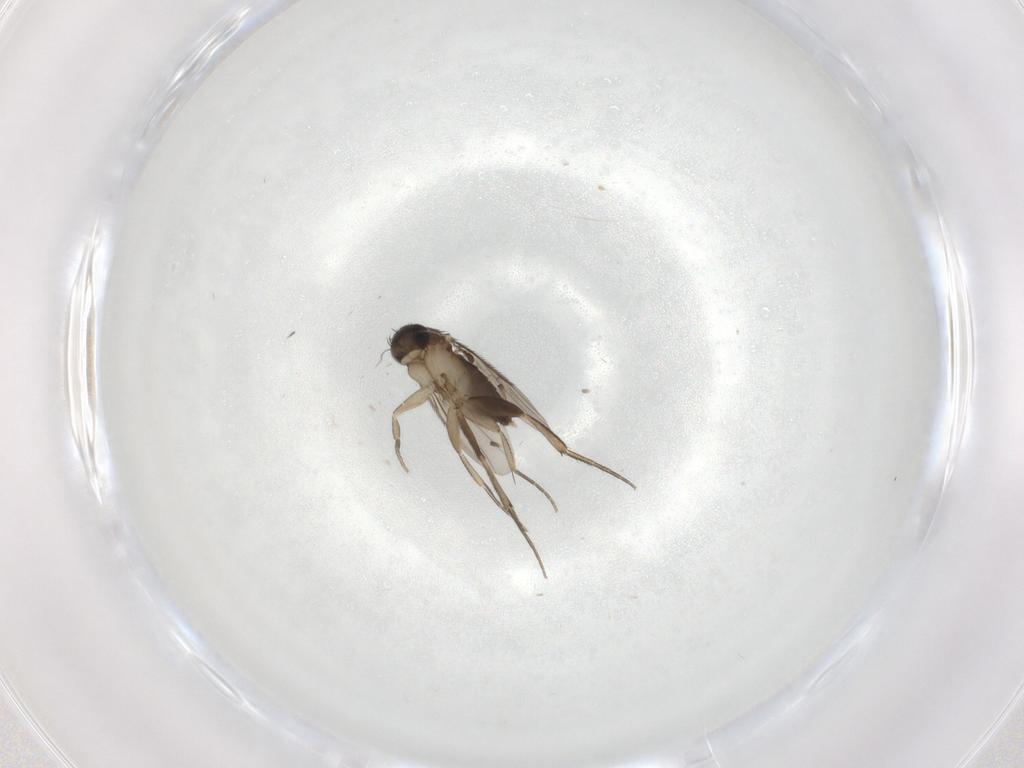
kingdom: Animalia
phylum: Arthropoda
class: Insecta
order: Diptera
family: Phoridae
